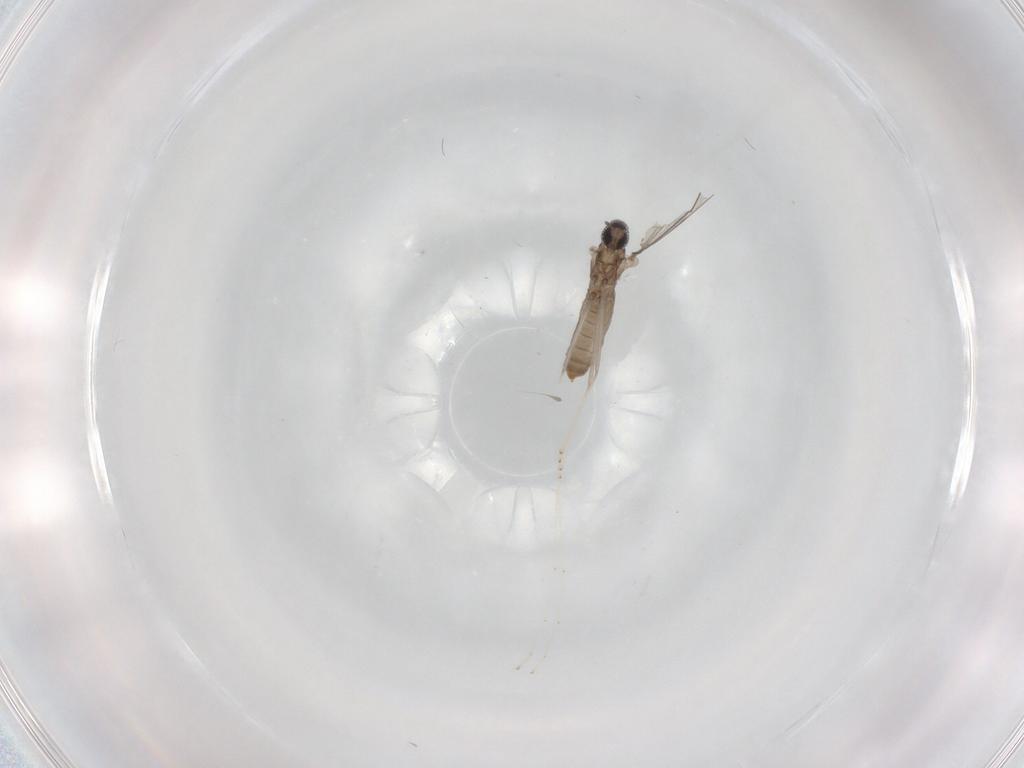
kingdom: Animalia
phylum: Arthropoda
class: Insecta
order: Diptera
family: Cecidomyiidae
